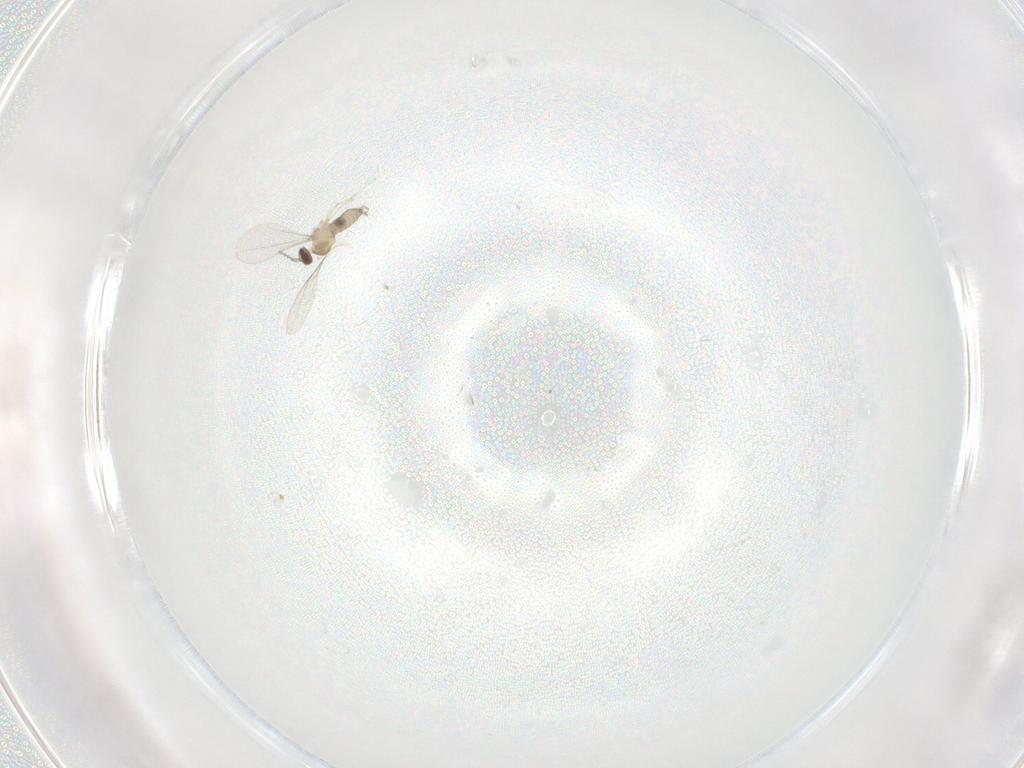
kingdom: Animalia
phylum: Arthropoda
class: Insecta
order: Diptera
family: Cecidomyiidae
